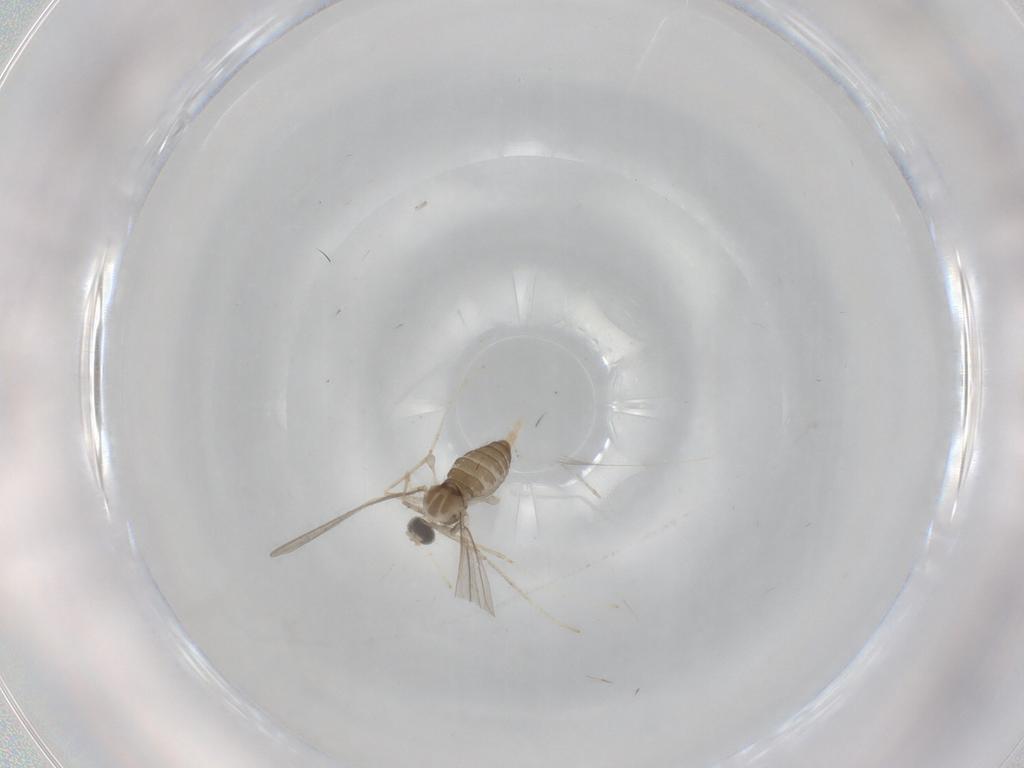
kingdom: Animalia
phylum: Arthropoda
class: Insecta
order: Diptera
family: Cecidomyiidae
